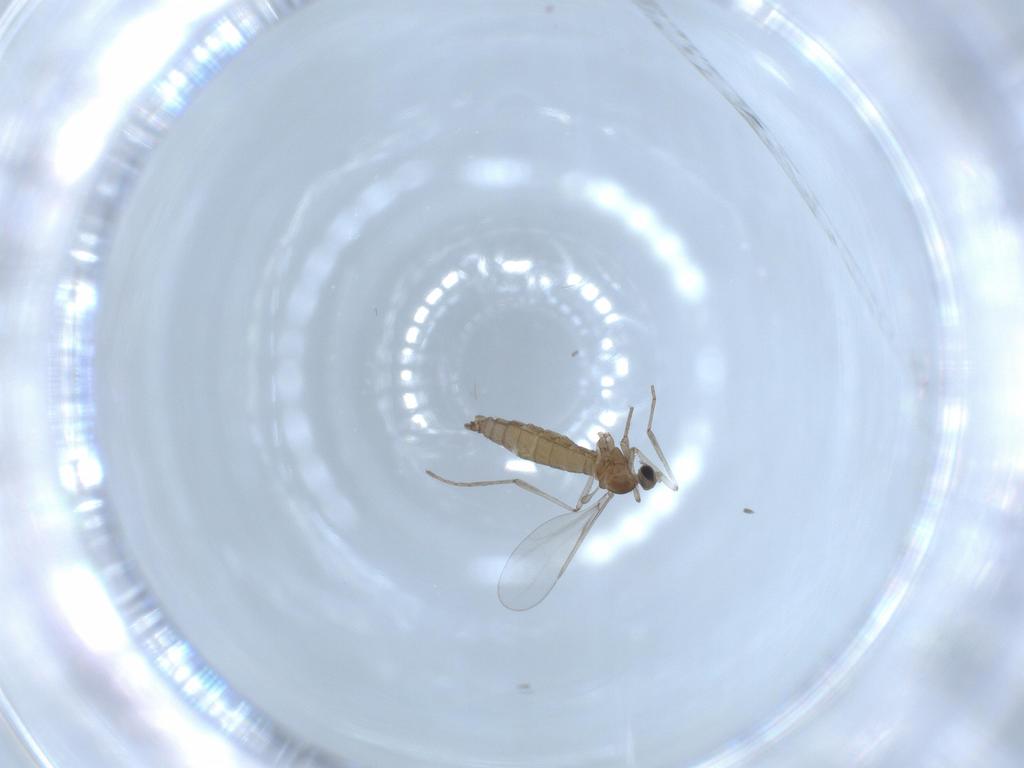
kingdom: Animalia
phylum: Arthropoda
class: Insecta
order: Diptera
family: Cecidomyiidae
